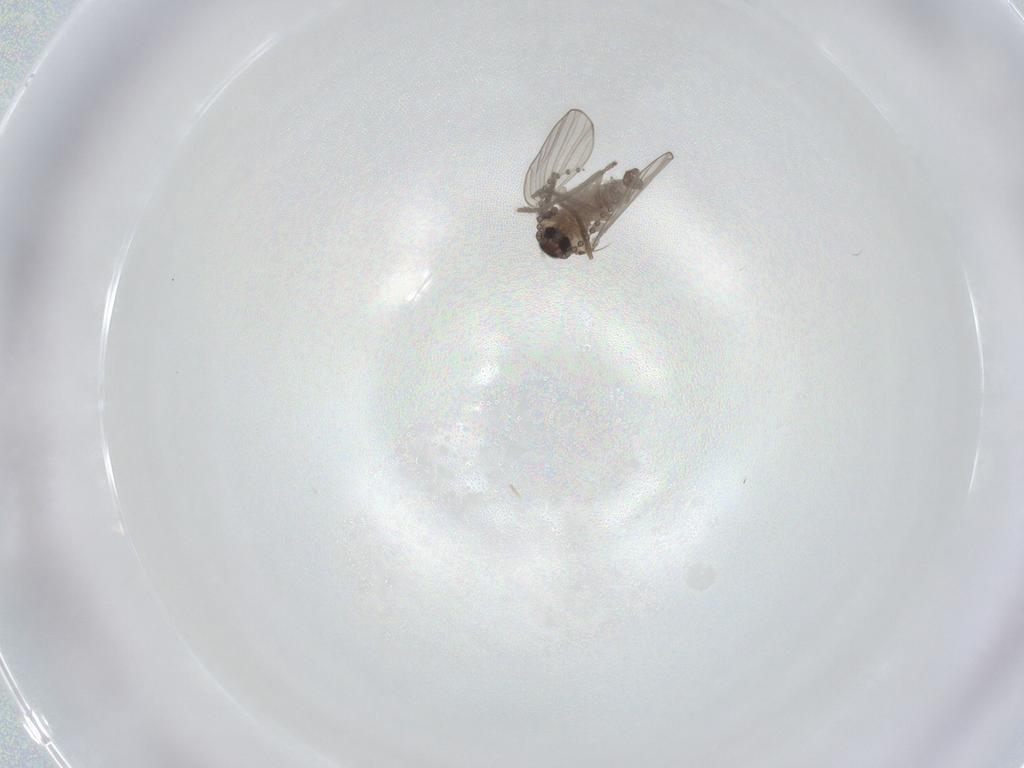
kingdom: Animalia
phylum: Arthropoda
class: Insecta
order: Diptera
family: Psychodidae
